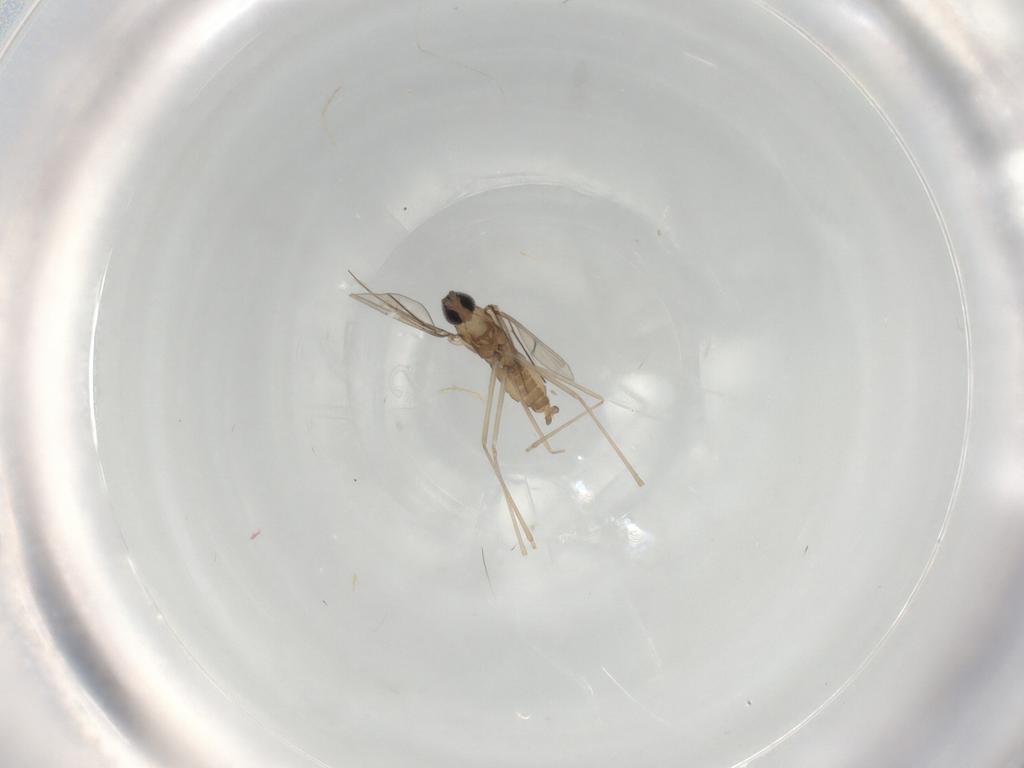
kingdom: Animalia
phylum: Arthropoda
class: Insecta
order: Diptera
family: Cecidomyiidae
